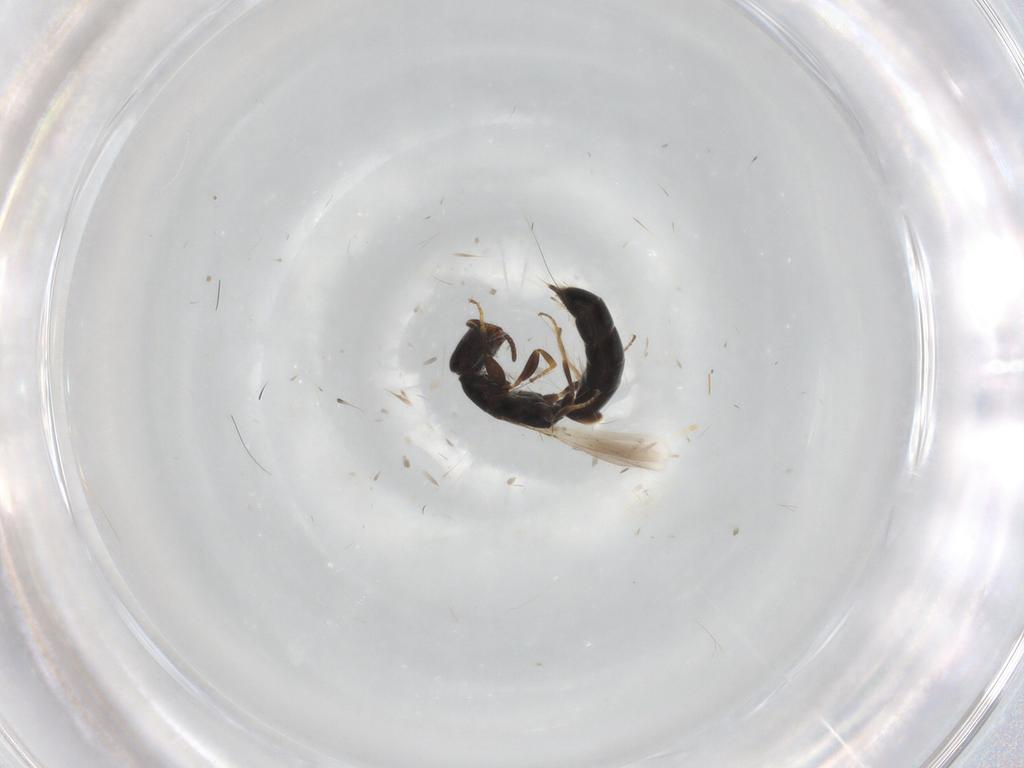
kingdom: Animalia
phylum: Arthropoda
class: Insecta
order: Hymenoptera
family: Bethylidae
